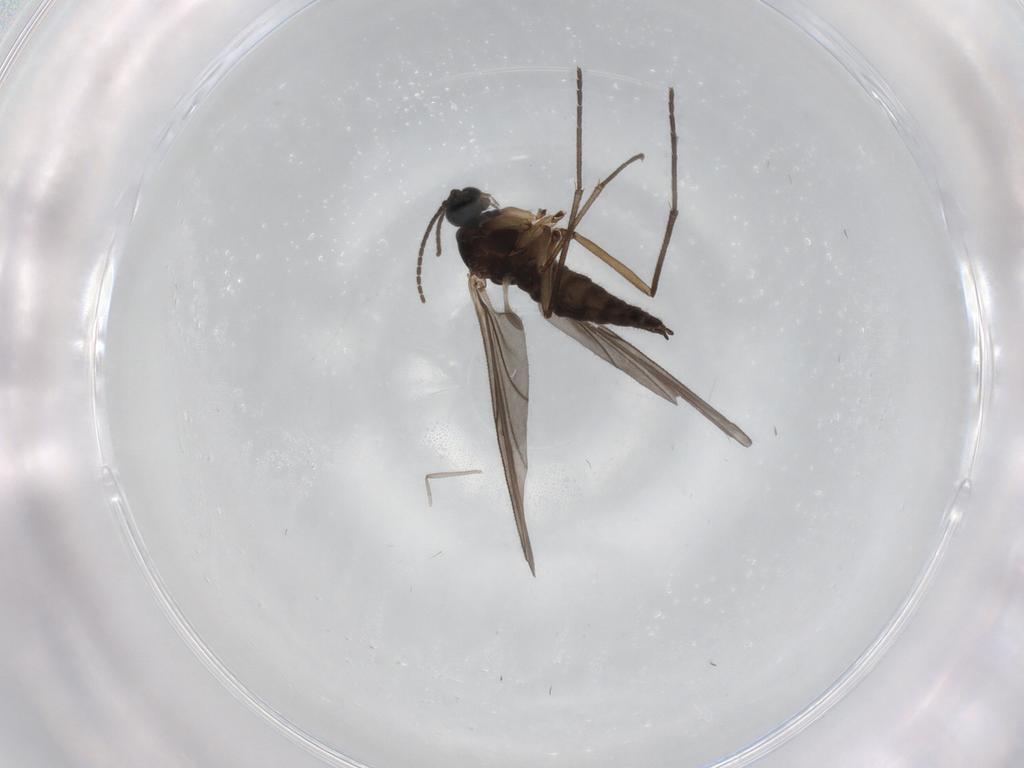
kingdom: Animalia
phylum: Arthropoda
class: Insecta
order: Diptera
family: Sciaridae
